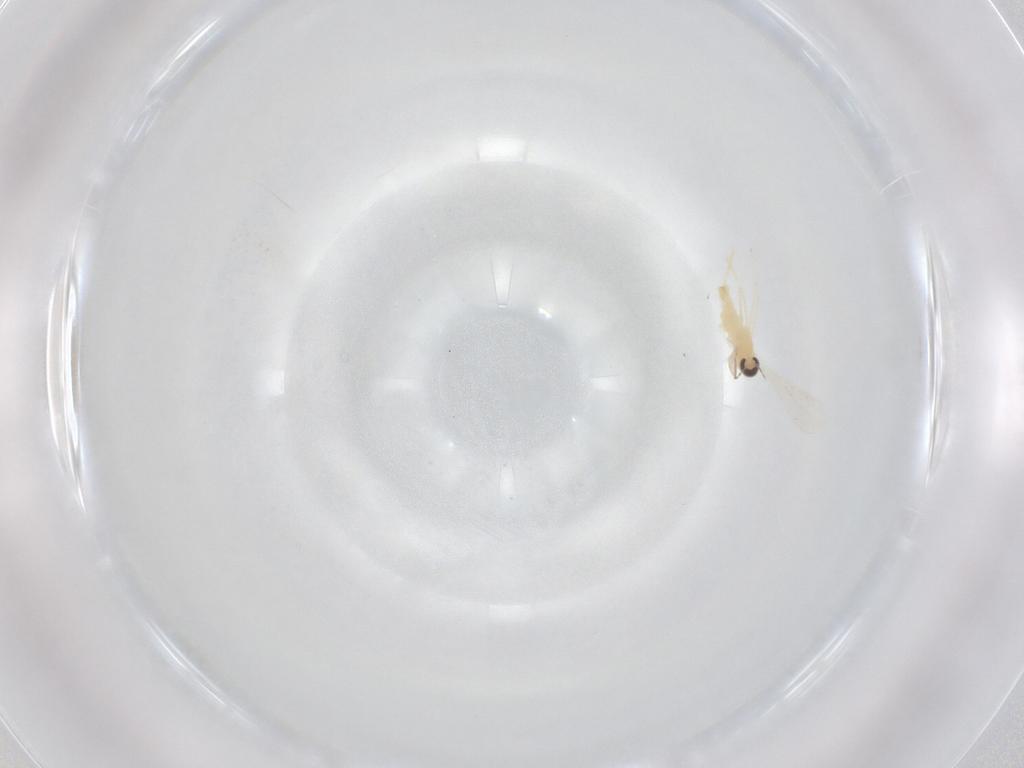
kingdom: Animalia
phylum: Arthropoda
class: Insecta
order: Diptera
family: Cecidomyiidae
